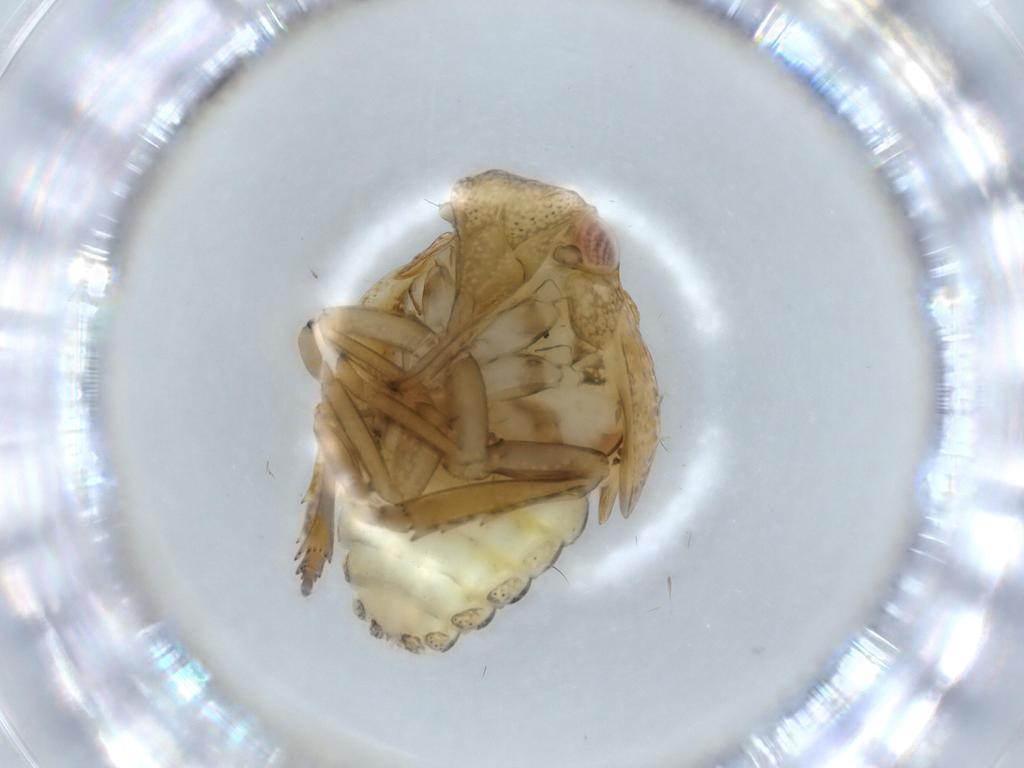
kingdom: Animalia
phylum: Arthropoda
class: Insecta
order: Hemiptera
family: Acanaloniidae
